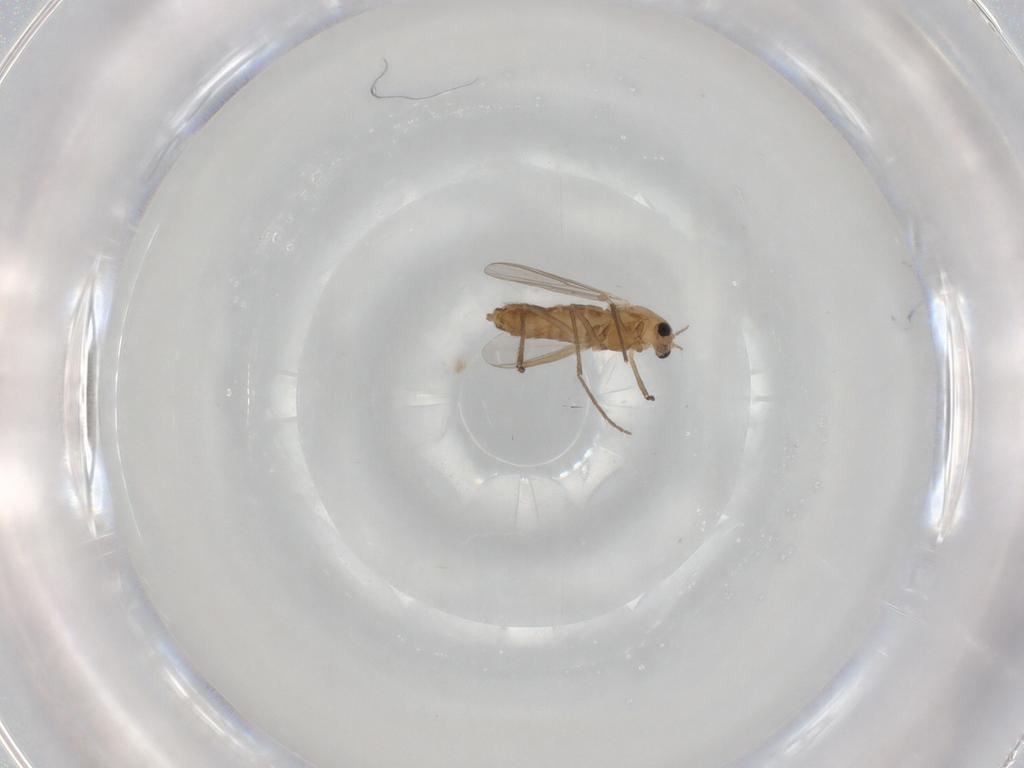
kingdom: Animalia
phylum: Arthropoda
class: Insecta
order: Diptera
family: Chironomidae
